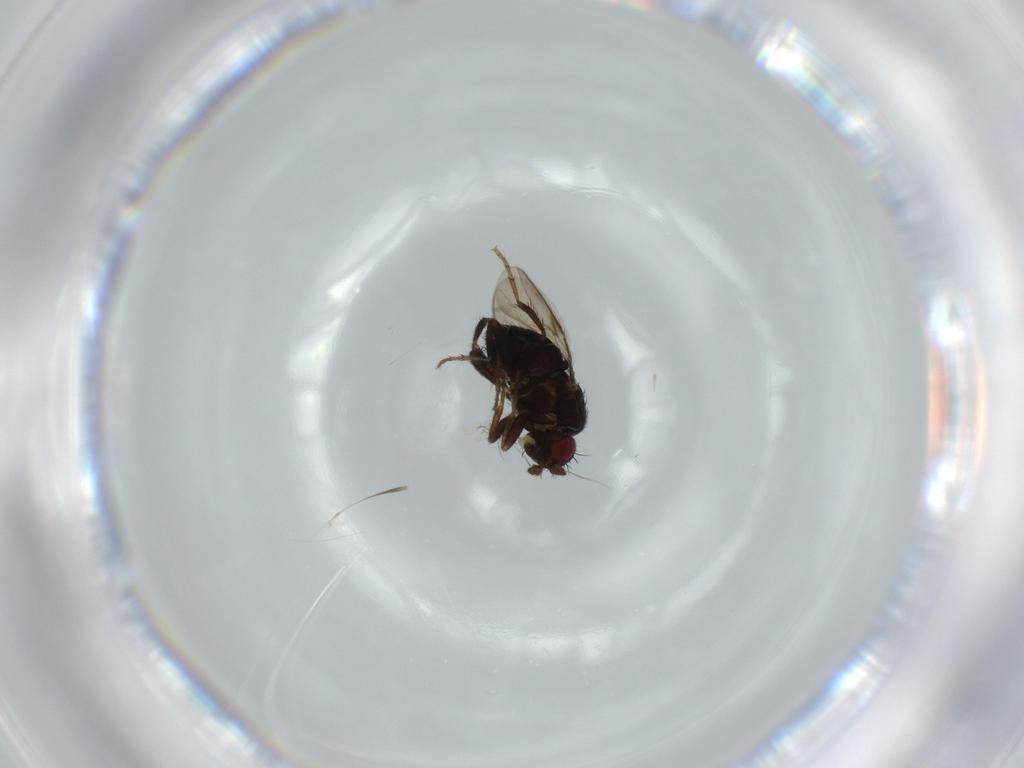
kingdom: Animalia
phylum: Arthropoda
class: Insecta
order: Diptera
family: Sphaeroceridae
